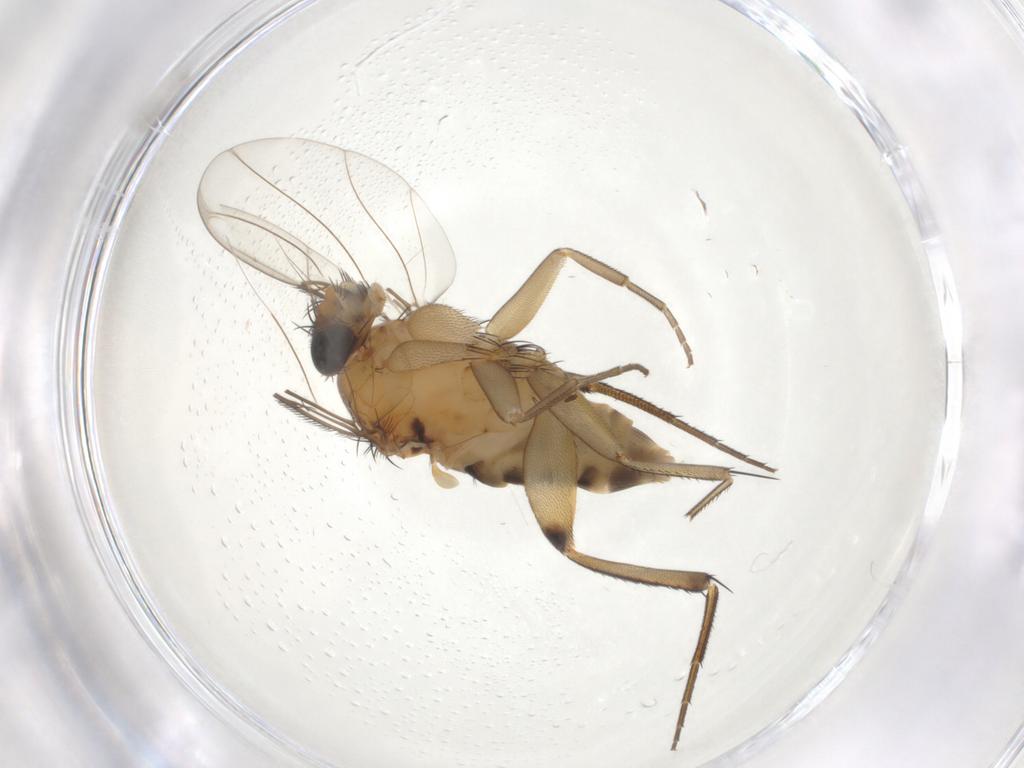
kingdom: Animalia
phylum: Arthropoda
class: Insecta
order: Diptera
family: Phoridae
